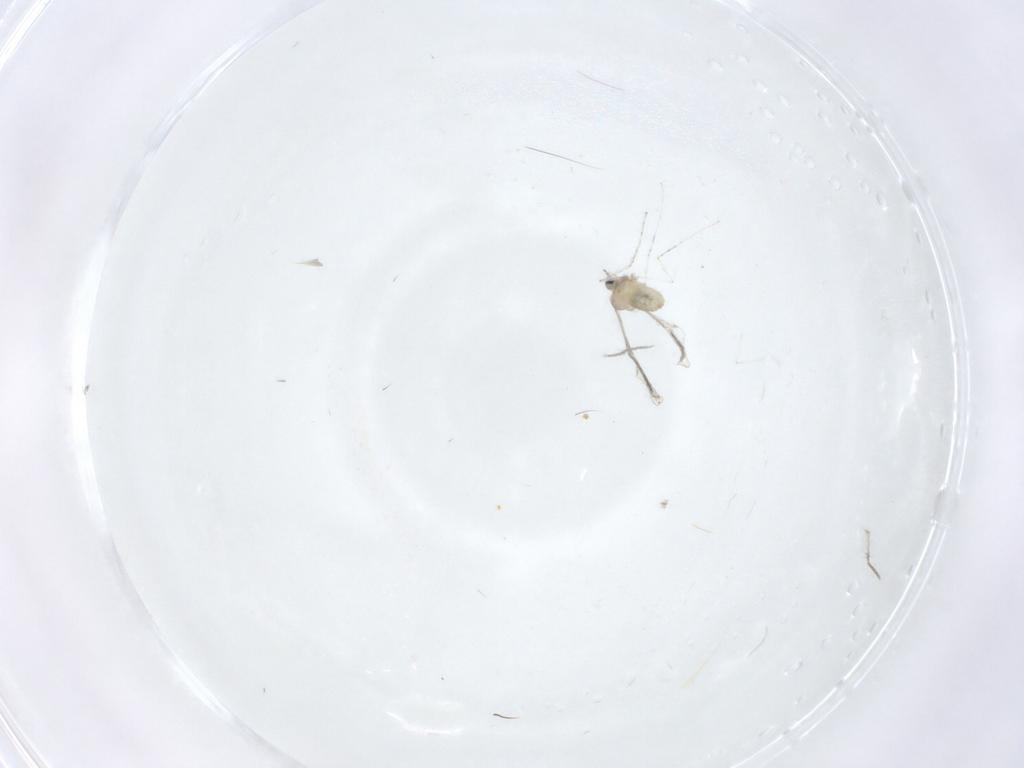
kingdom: Animalia
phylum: Arthropoda
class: Insecta
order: Diptera
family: Cecidomyiidae
